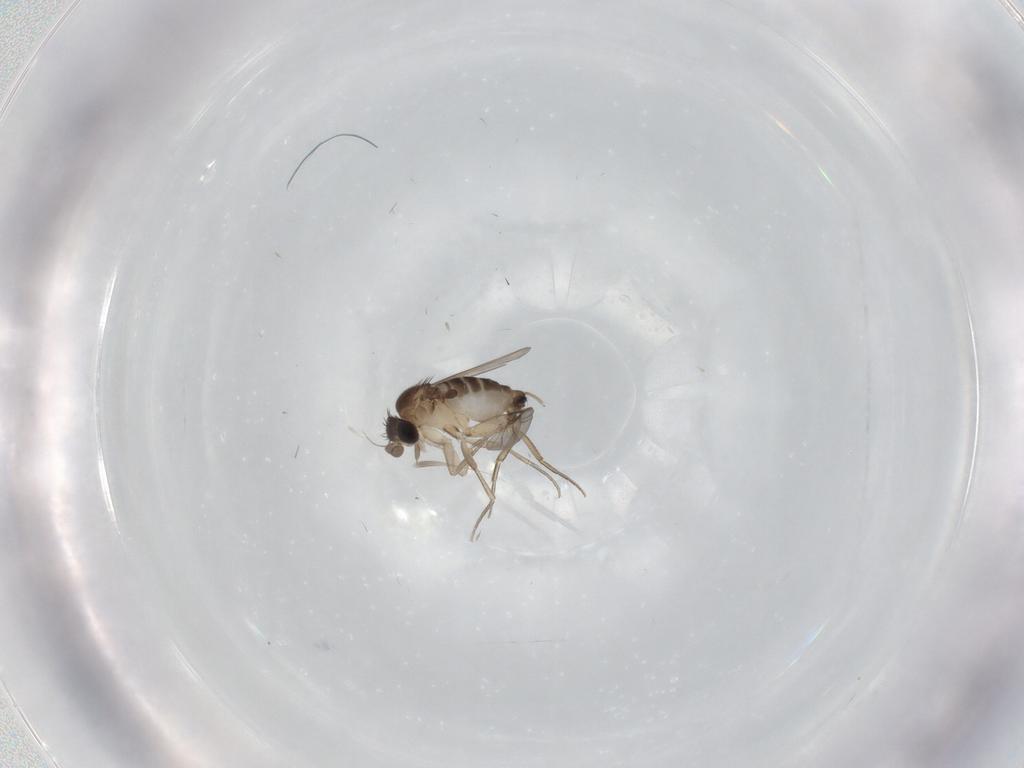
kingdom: Animalia
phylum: Arthropoda
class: Insecta
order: Diptera
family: Phoridae
